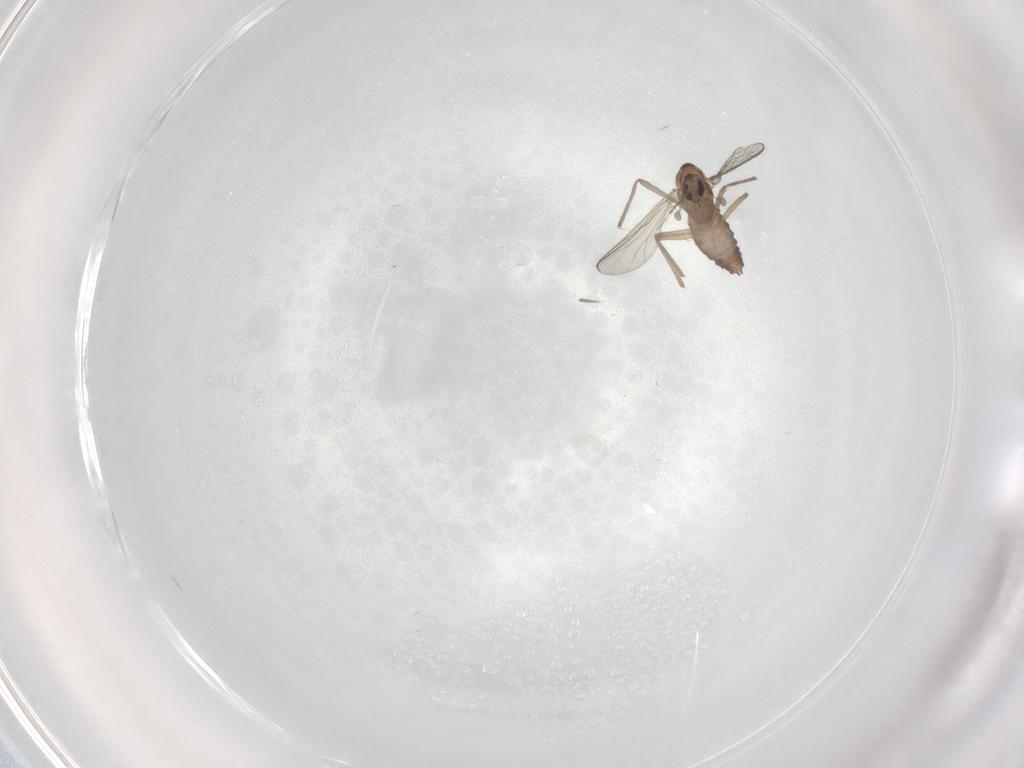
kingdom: Animalia
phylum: Arthropoda
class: Insecta
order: Diptera
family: Chironomidae
